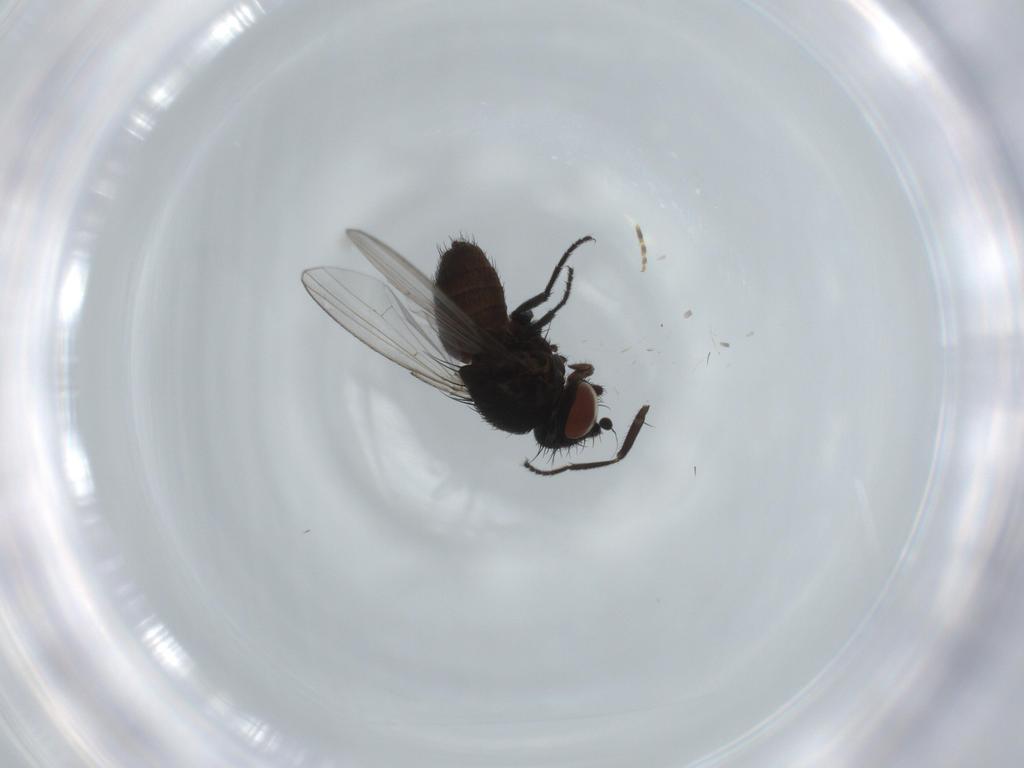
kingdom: Animalia
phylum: Arthropoda
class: Insecta
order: Diptera
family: Milichiidae
